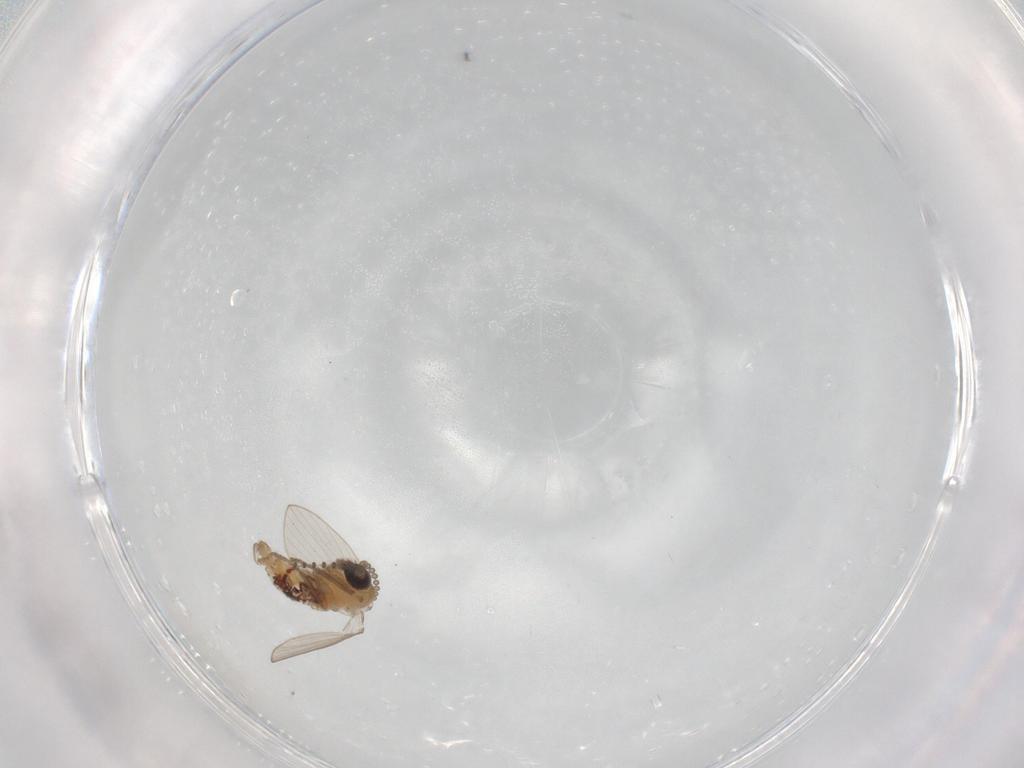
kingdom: Animalia
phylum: Arthropoda
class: Insecta
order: Diptera
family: Psychodidae
